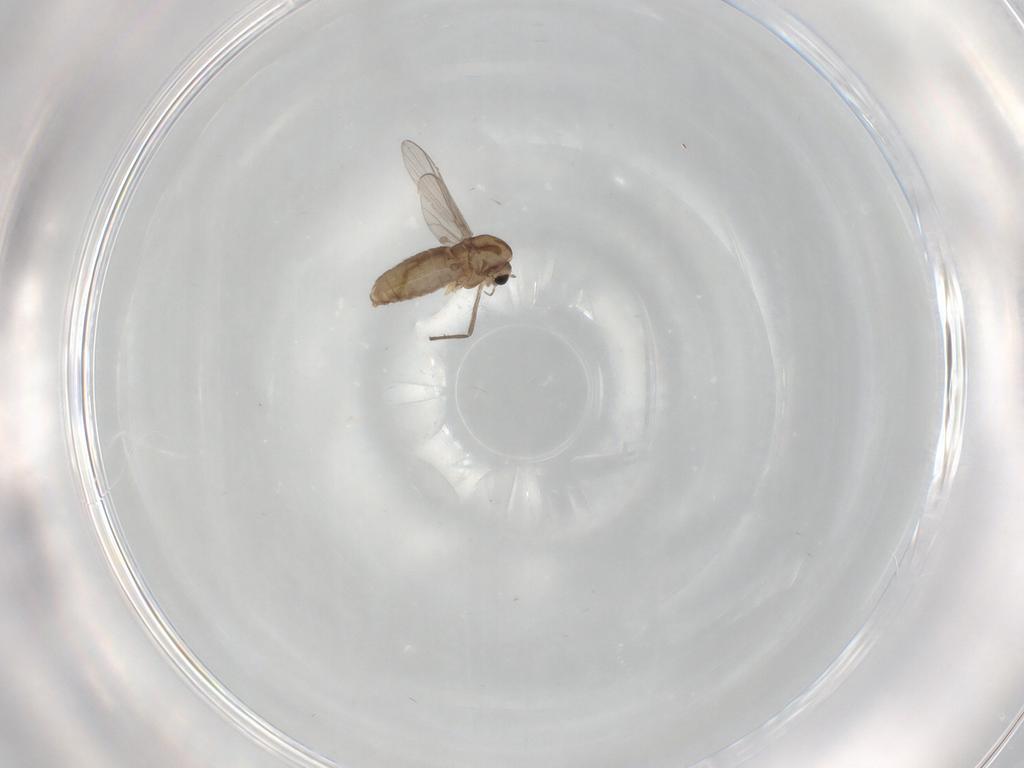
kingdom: Animalia
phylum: Arthropoda
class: Insecta
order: Diptera
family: Chironomidae
